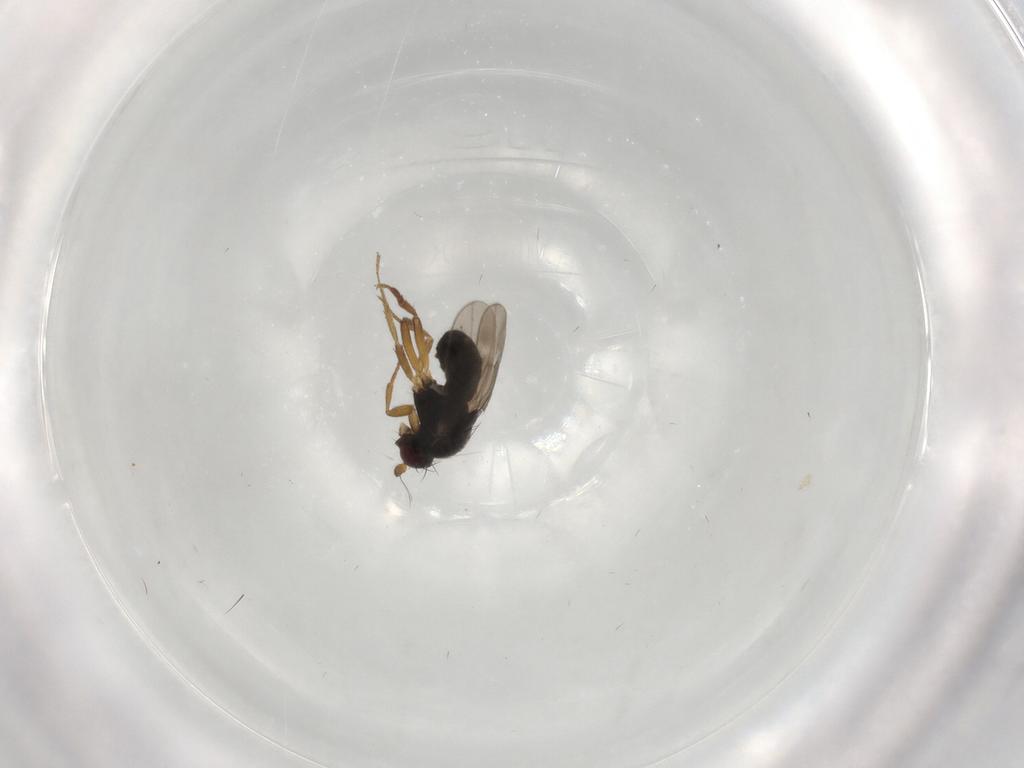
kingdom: Animalia
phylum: Arthropoda
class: Insecta
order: Diptera
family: Sphaeroceridae
